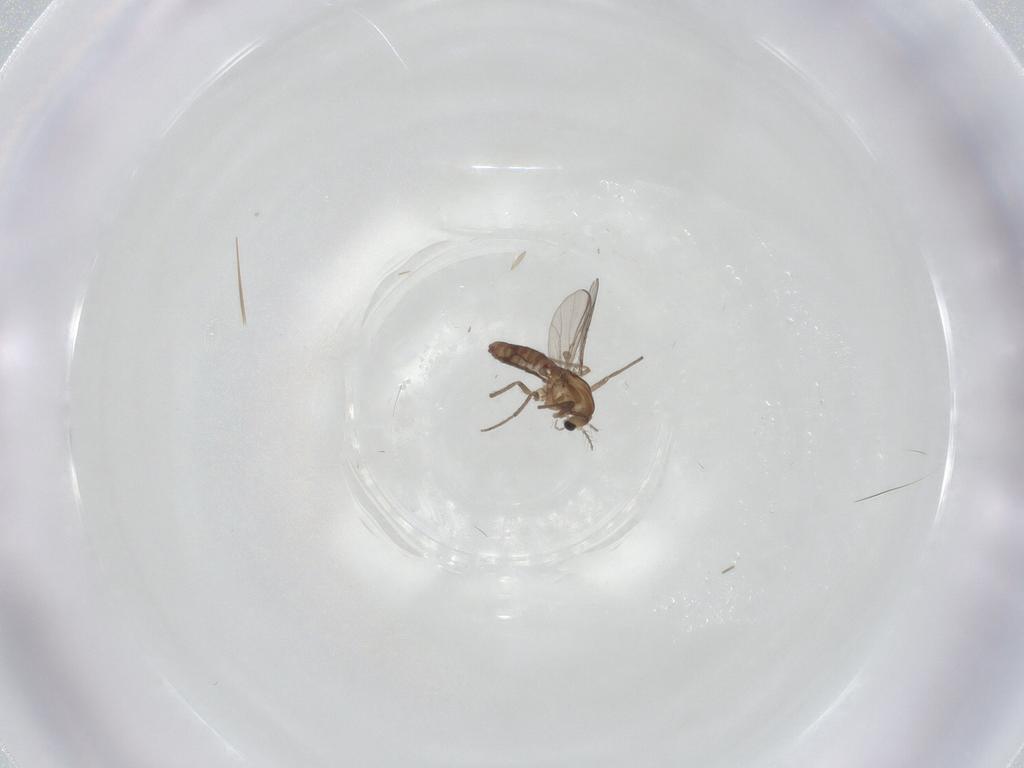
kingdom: Animalia
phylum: Arthropoda
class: Insecta
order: Diptera
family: Chironomidae
